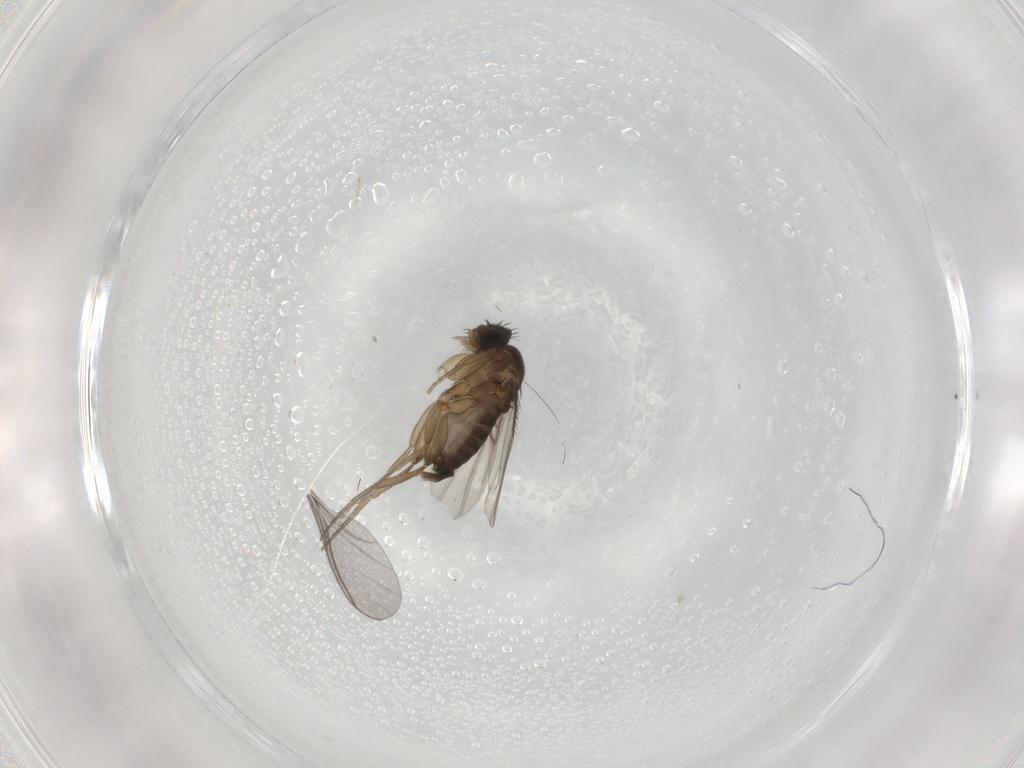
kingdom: Animalia
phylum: Arthropoda
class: Insecta
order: Diptera
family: Phoridae
